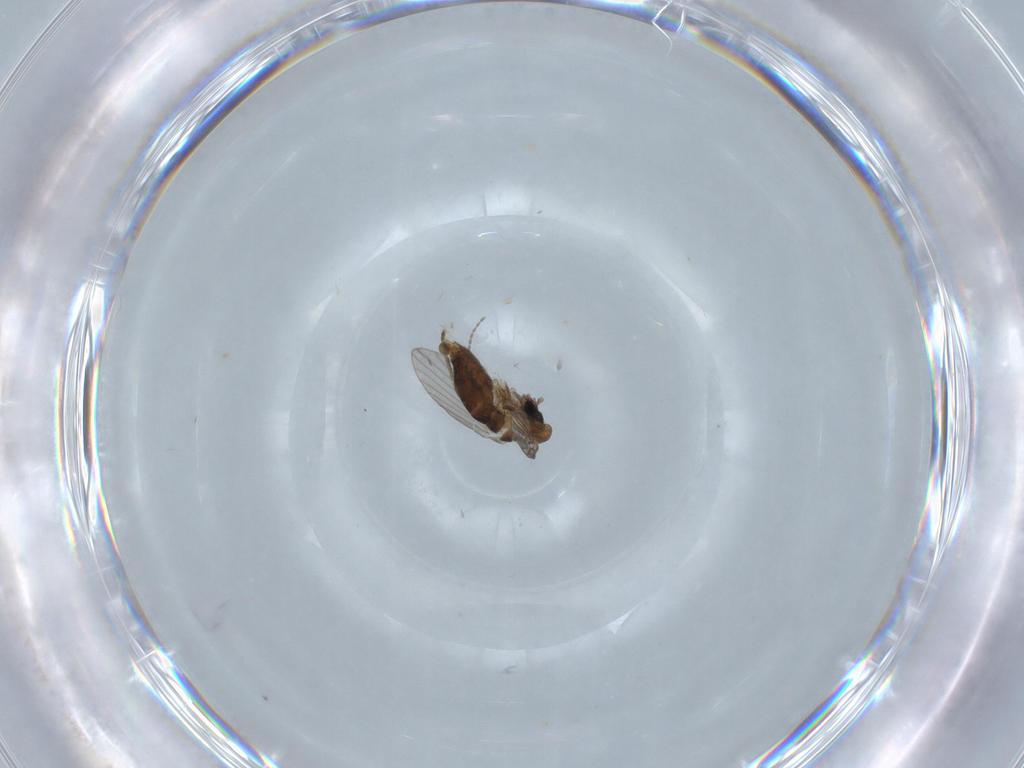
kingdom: Animalia
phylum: Arthropoda
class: Insecta
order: Diptera
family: Psychodidae
